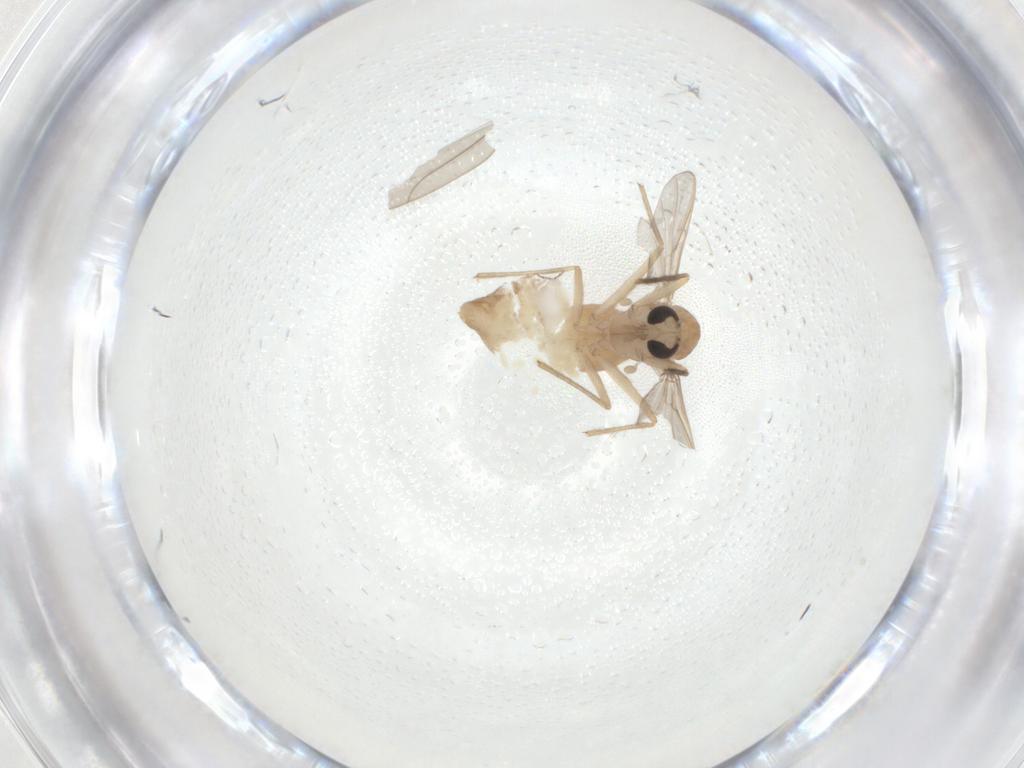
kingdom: Animalia
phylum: Arthropoda
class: Insecta
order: Diptera
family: Chironomidae
